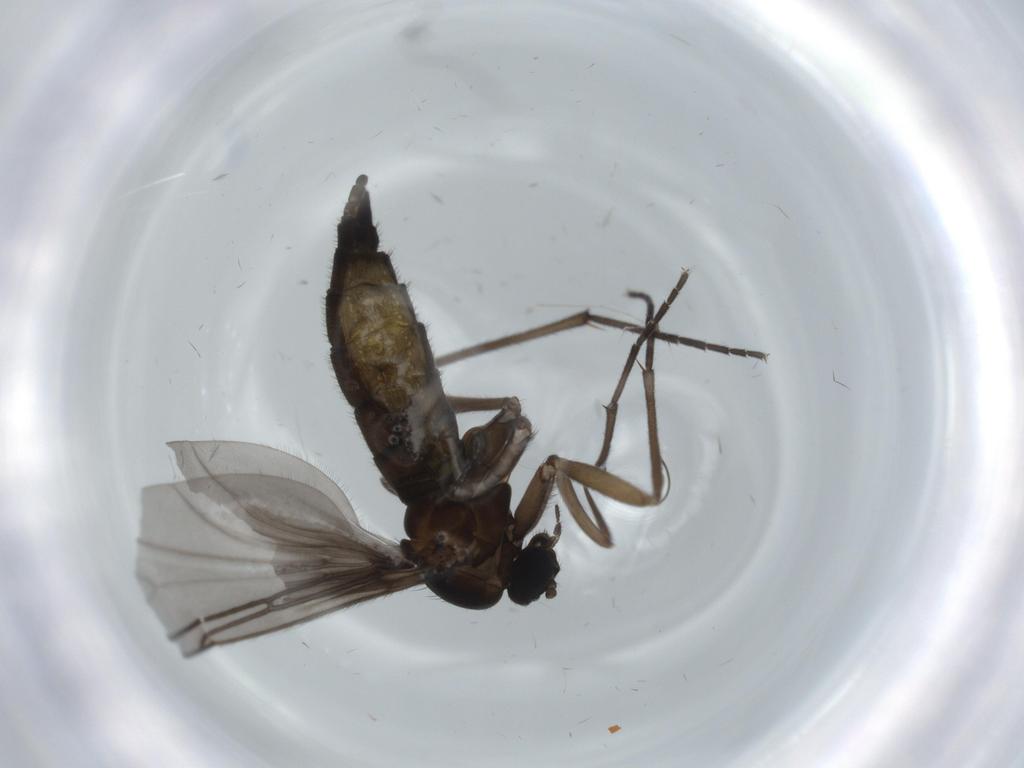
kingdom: Animalia
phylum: Arthropoda
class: Insecta
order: Diptera
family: Sciaridae
